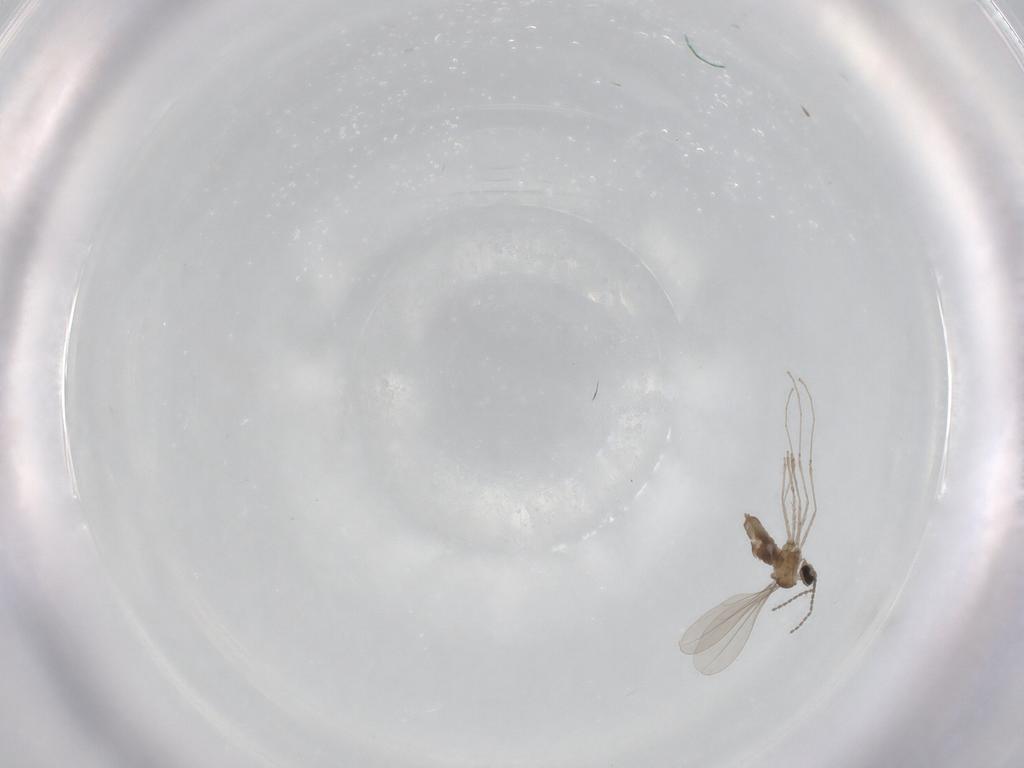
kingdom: Animalia
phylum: Arthropoda
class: Insecta
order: Diptera
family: Cecidomyiidae
